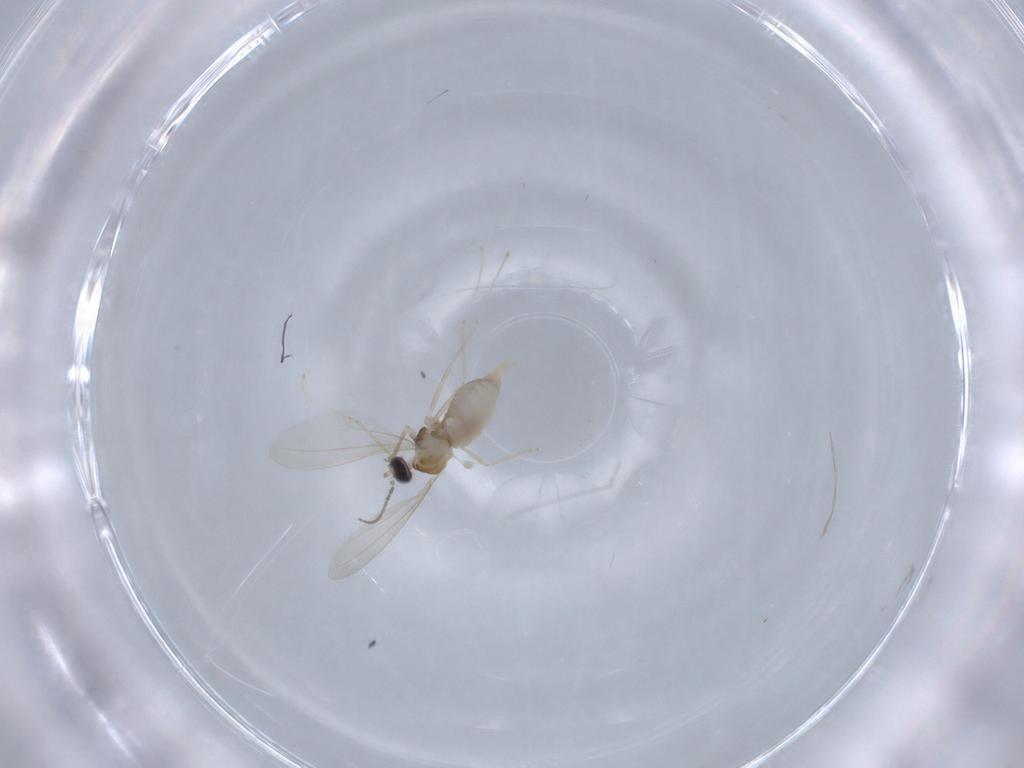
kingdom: Animalia
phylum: Arthropoda
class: Insecta
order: Diptera
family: Cecidomyiidae
